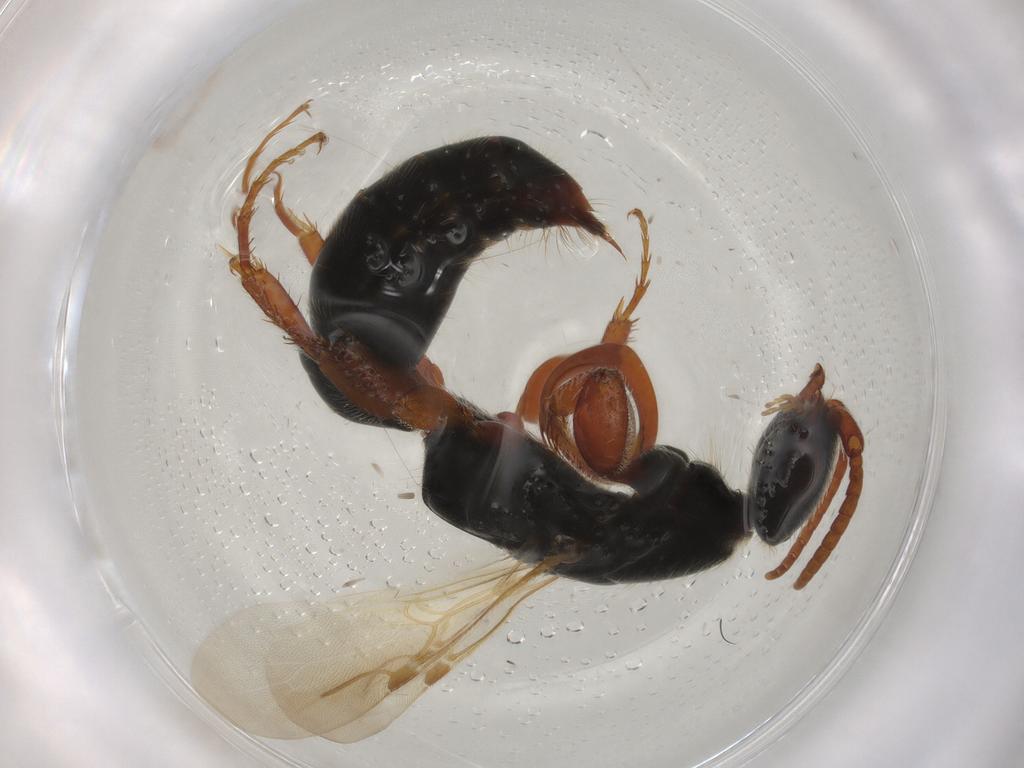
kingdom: Animalia
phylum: Arthropoda
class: Insecta
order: Hymenoptera
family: Bethylidae
